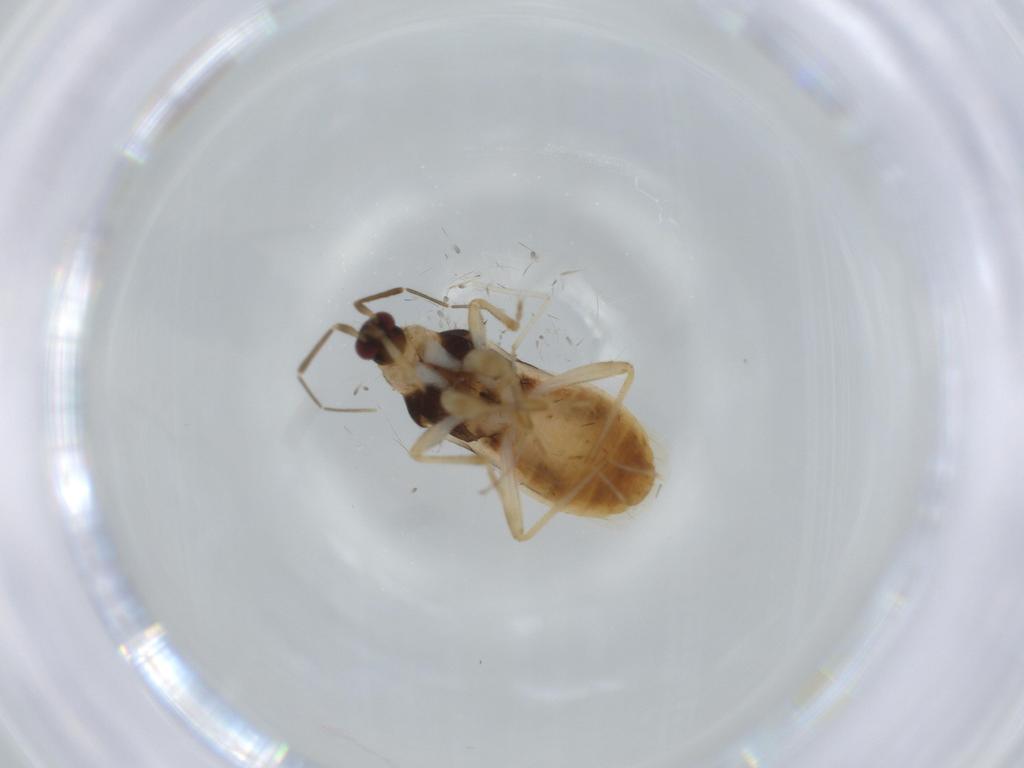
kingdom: Animalia
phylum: Arthropoda
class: Insecta
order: Hemiptera
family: Nabidae
